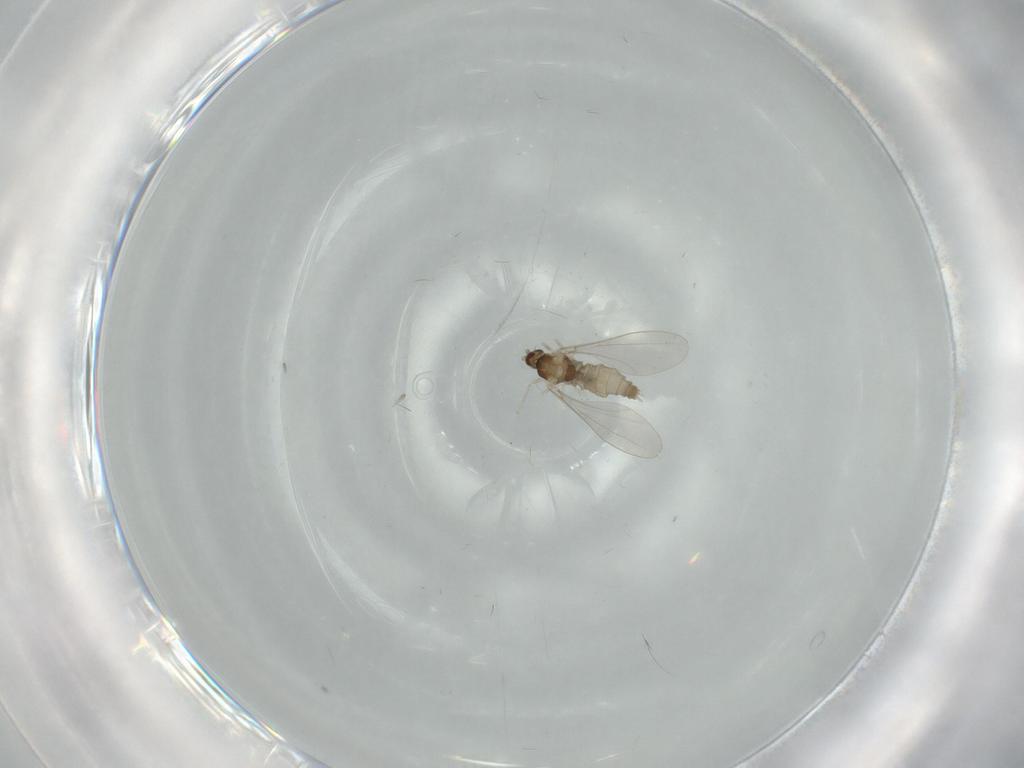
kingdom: Animalia
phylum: Arthropoda
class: Insecta
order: Diptera
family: Cecidomyiidae
